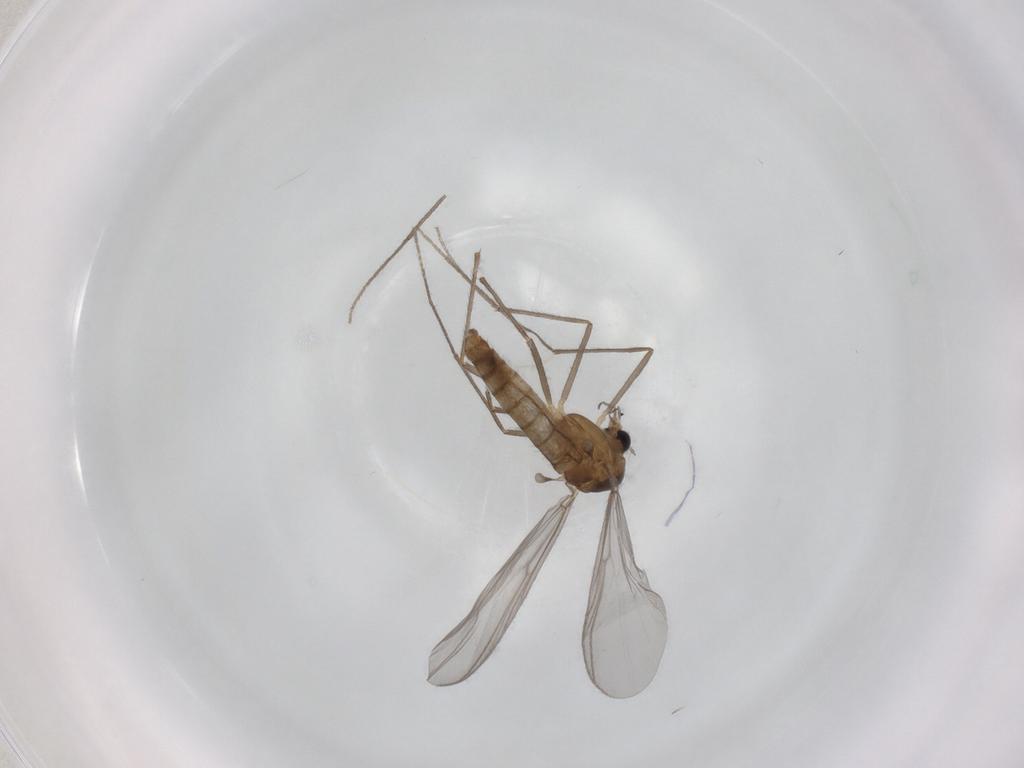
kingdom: Animalia
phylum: Arthropoda
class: Insecta
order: Diptera
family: Chironomidae
